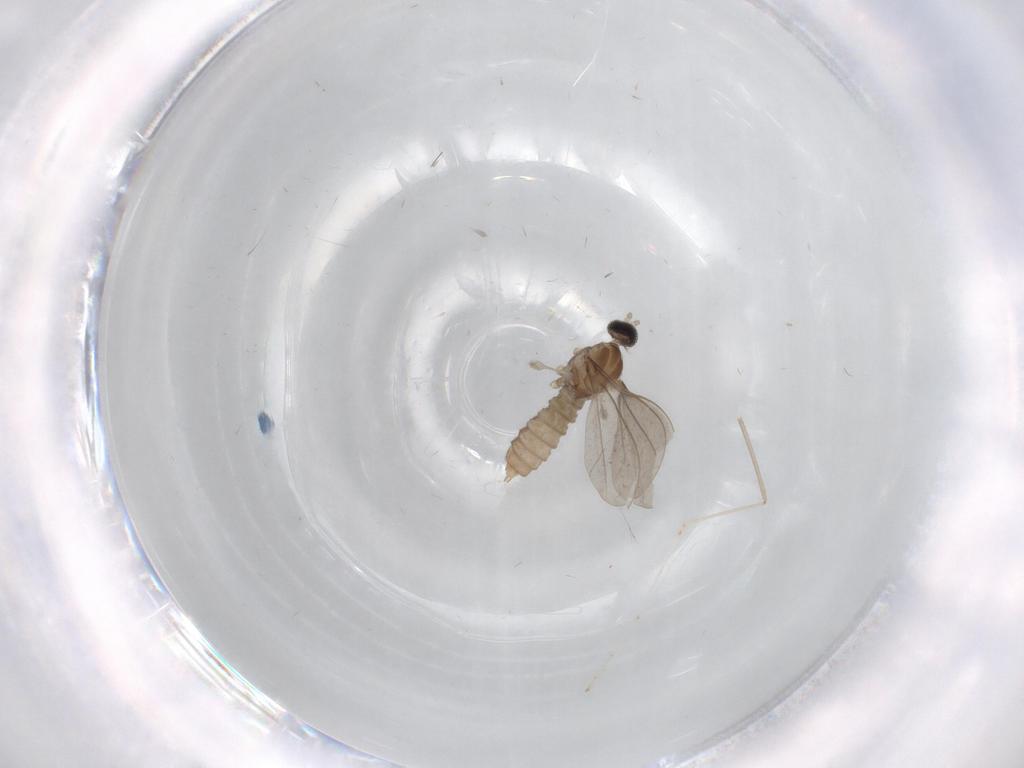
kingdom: Animalia
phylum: Arthropoda
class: Insecta
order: Diptera
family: Cecidomyiidae
